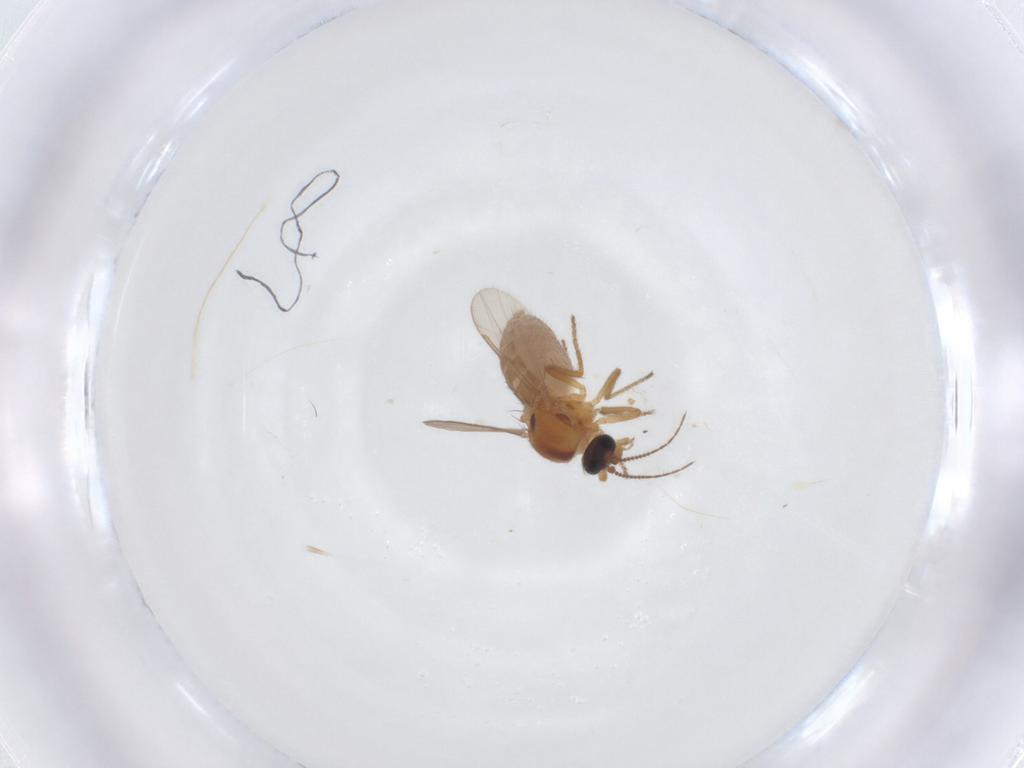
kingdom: Animalia
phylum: Arthropoda
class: Insecta
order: Diptera
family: Ceratopogonidae
